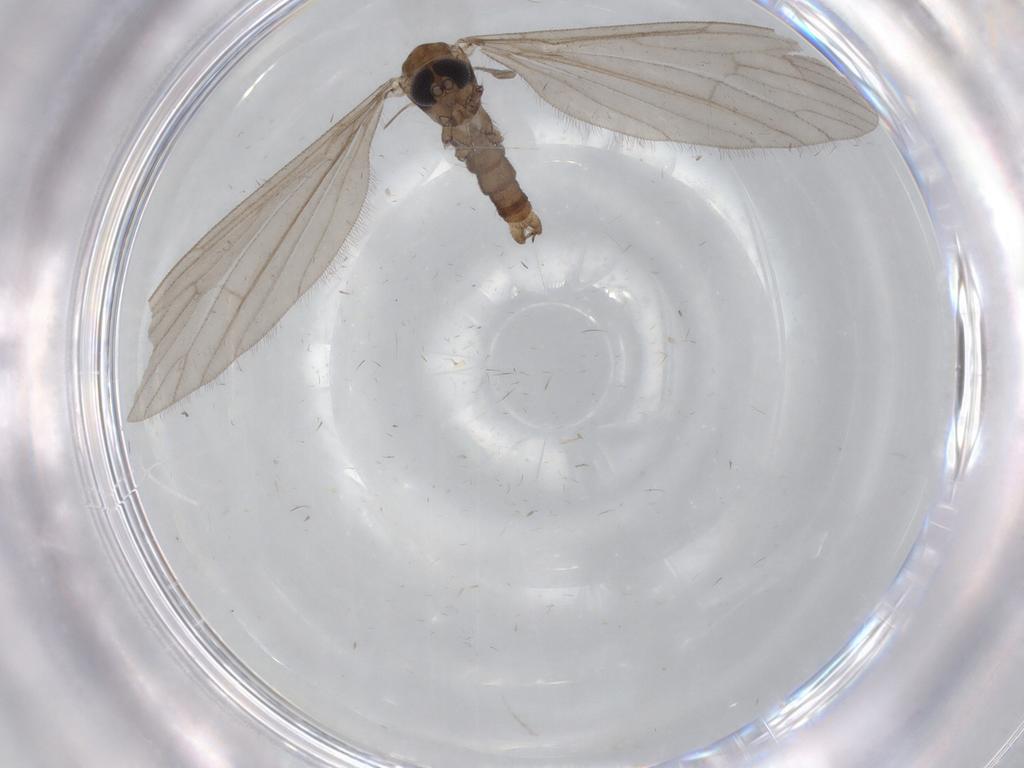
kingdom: Animalia
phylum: Arthropoda
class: Insecta
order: Diptera
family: Limoniidae
